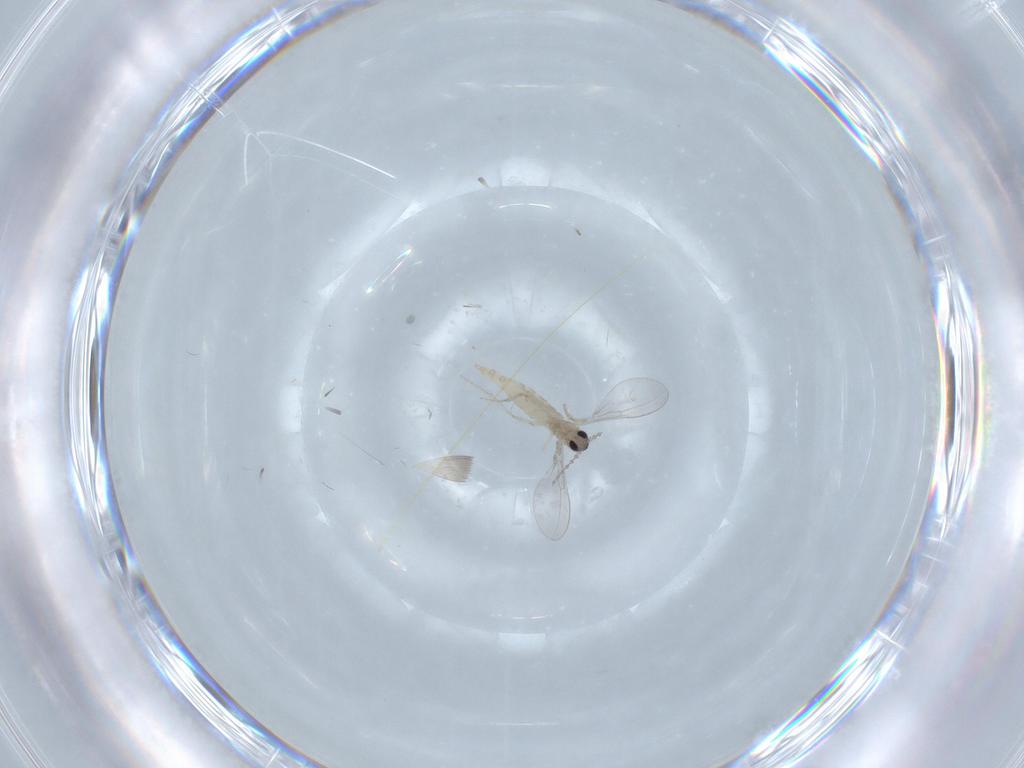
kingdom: Animalia
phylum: Arthropoda
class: Insecta
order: Diptera
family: Cecidomyiidae
